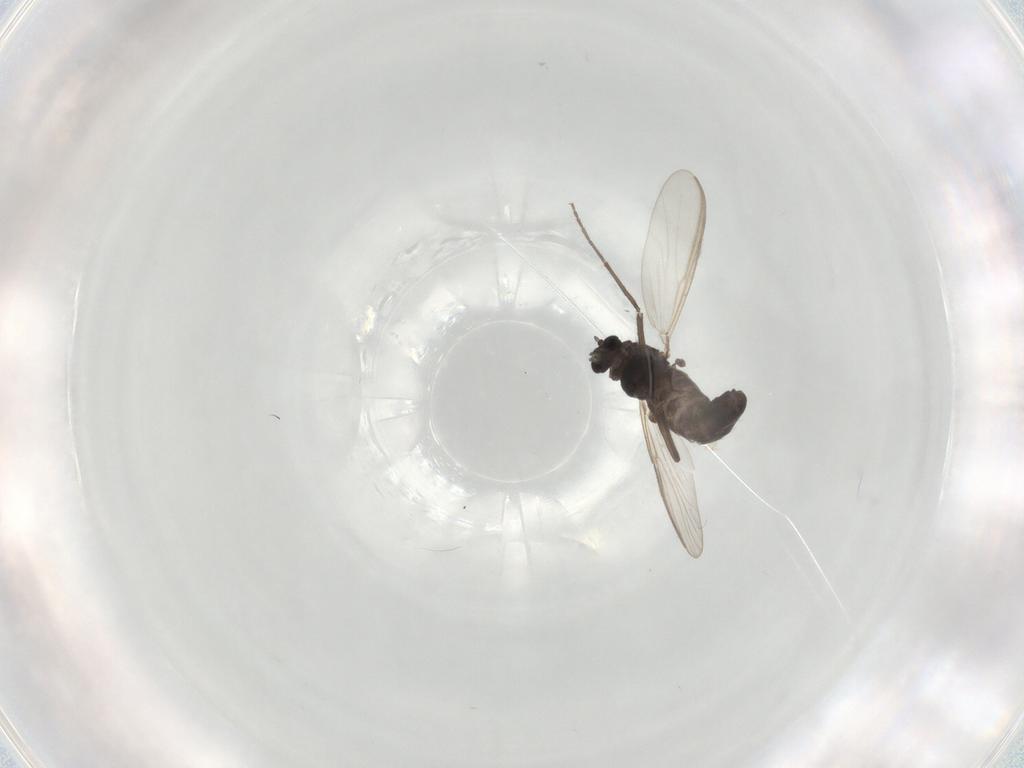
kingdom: Animalia
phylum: Arthropoda
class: Insecta
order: Diptera
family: Chironomidae
